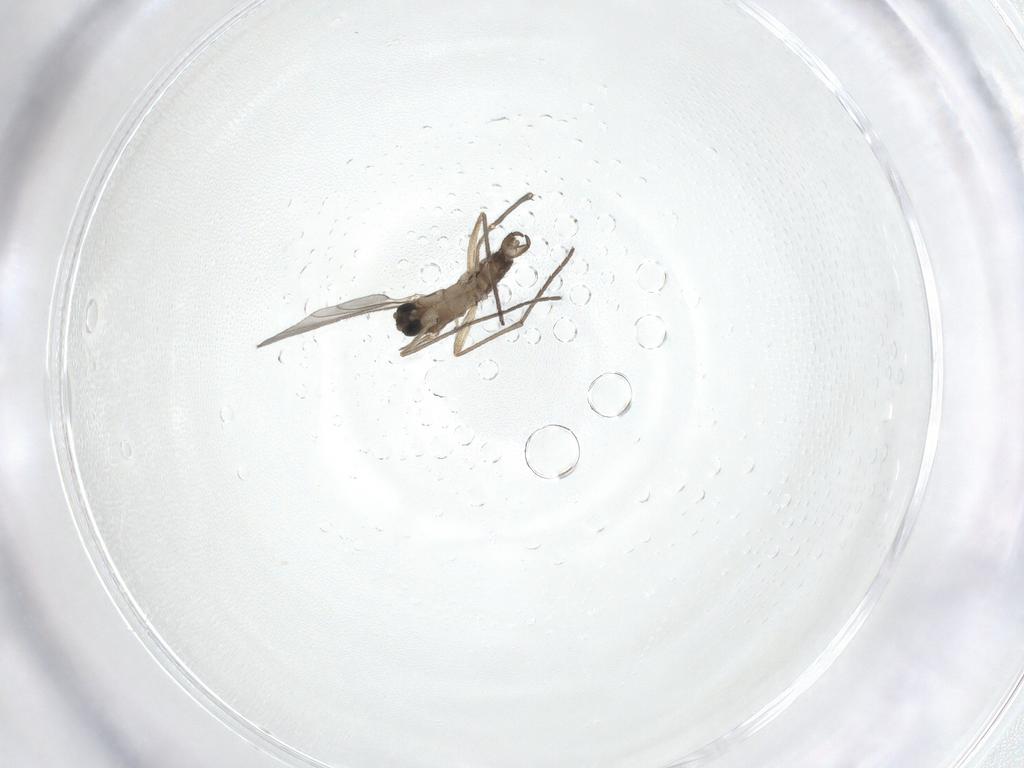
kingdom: Animalia
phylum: Arthropoda
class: Insecta
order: Diptera
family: Sciaridae
